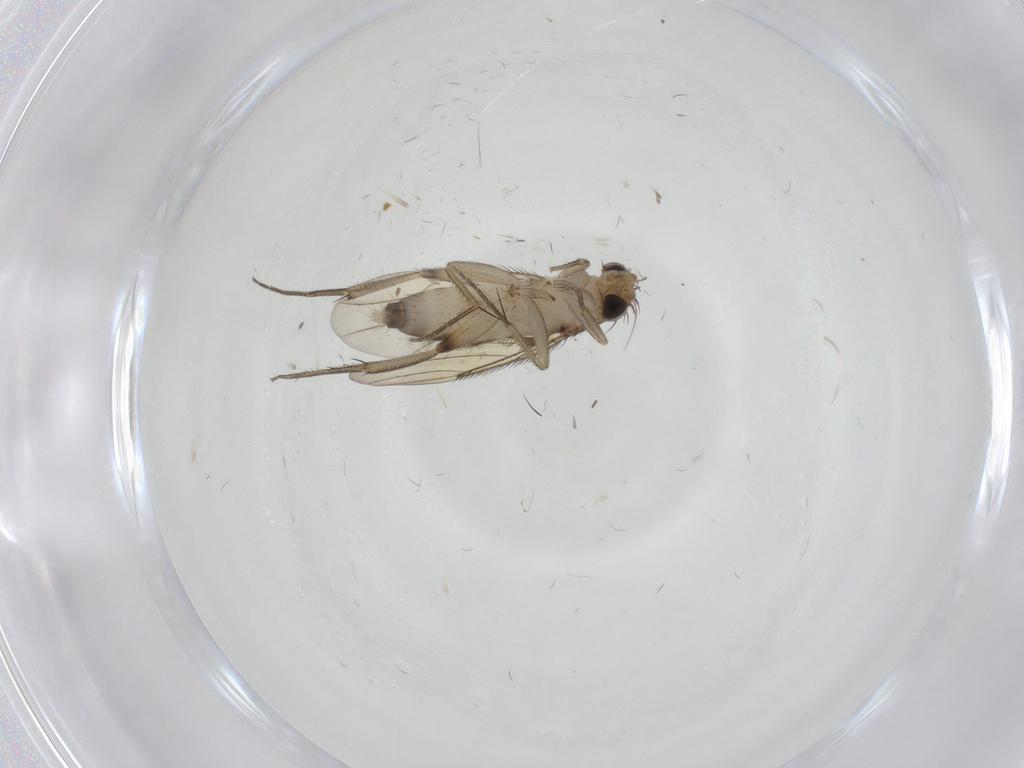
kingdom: Animalia
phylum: Arthropoda
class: Insecta
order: Diptera
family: Phoridae
